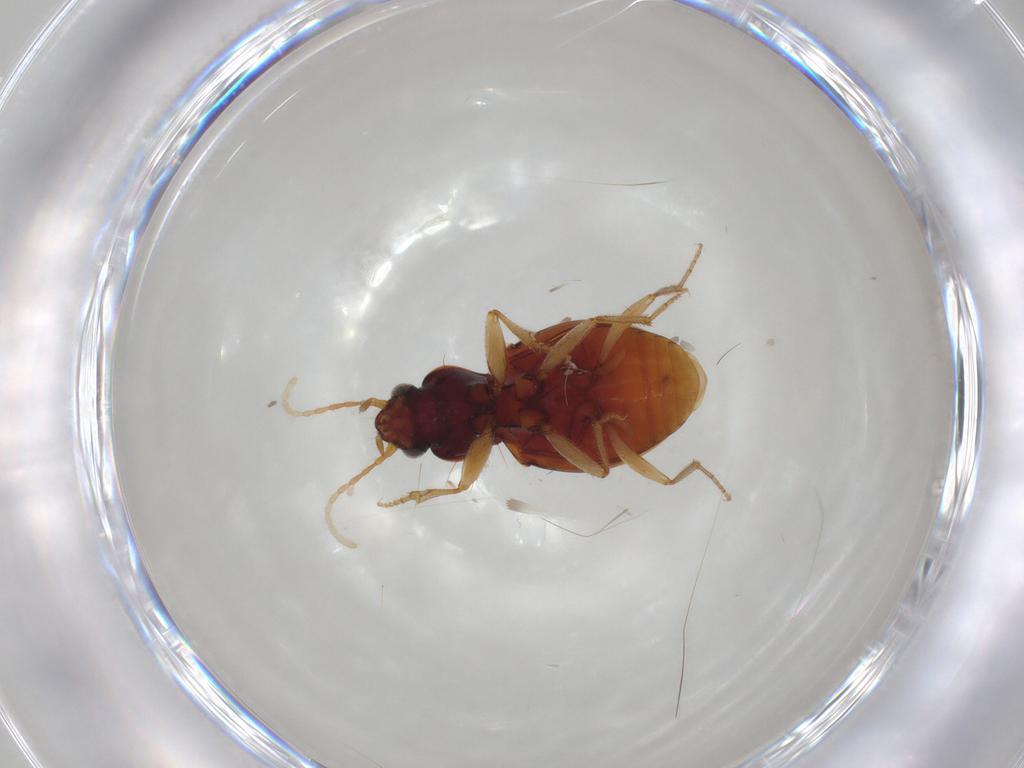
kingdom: Animalia
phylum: Arthropoda
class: Insecta
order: Coleoptera
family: Carabidae
